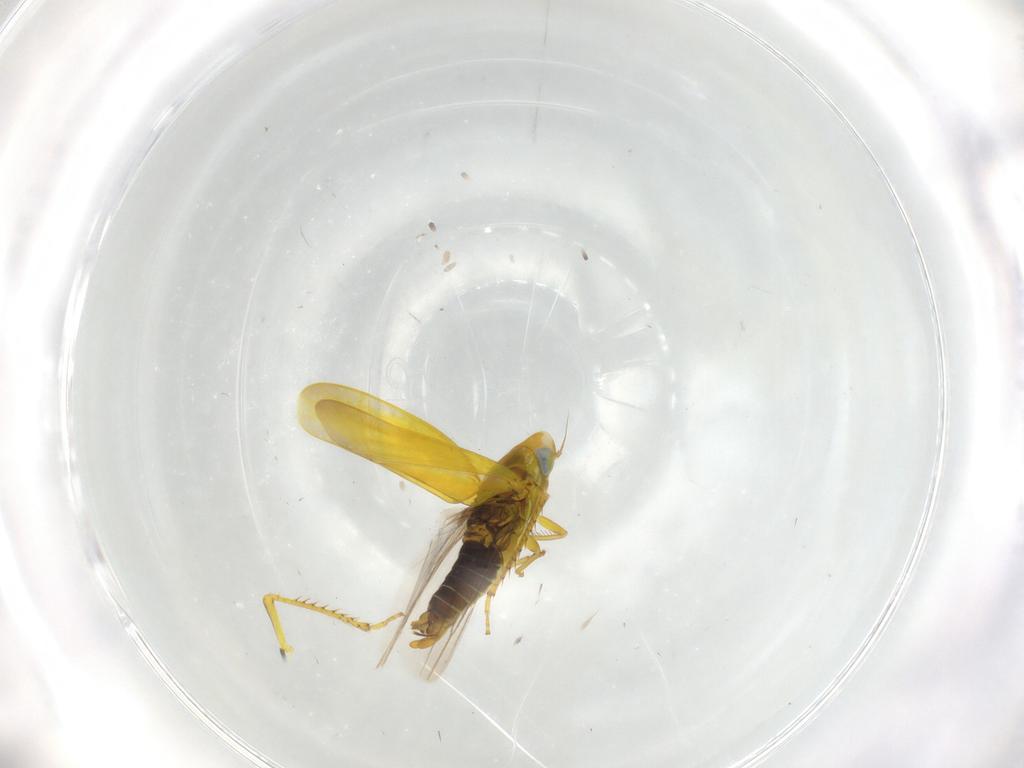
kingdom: Animalia
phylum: Arthropoda
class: Insecta
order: Hemiptera
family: Cicadellidae
